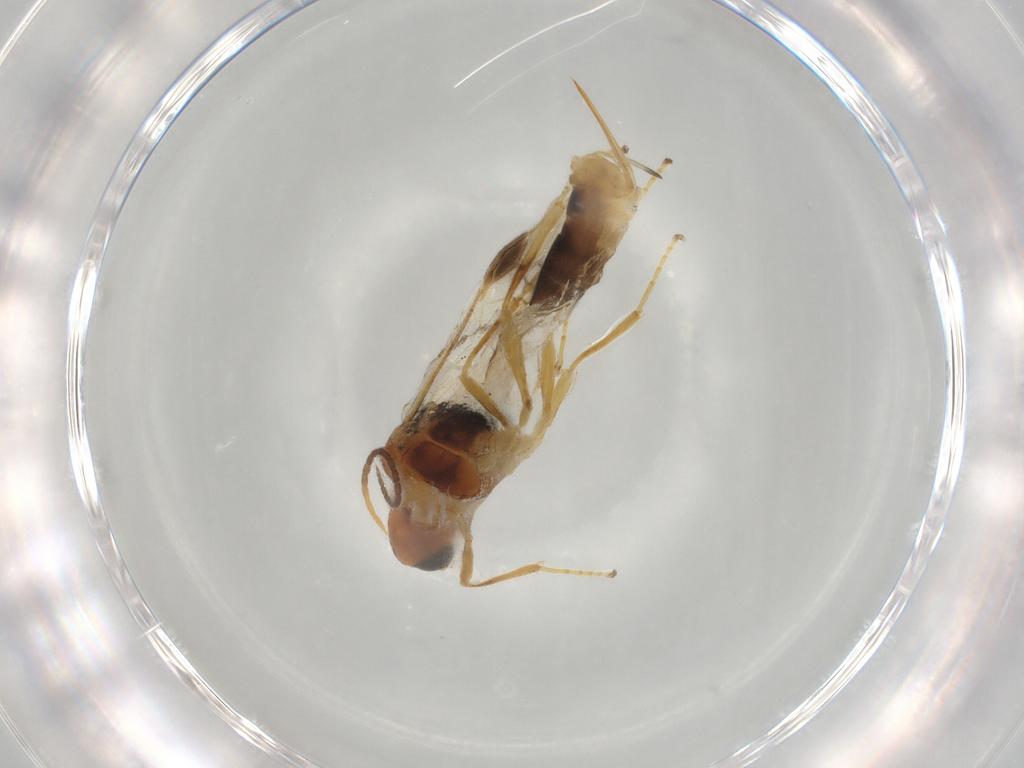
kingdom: Animalia
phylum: Arthropoda
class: Insecta
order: Hymenoptera
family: Braconidae
